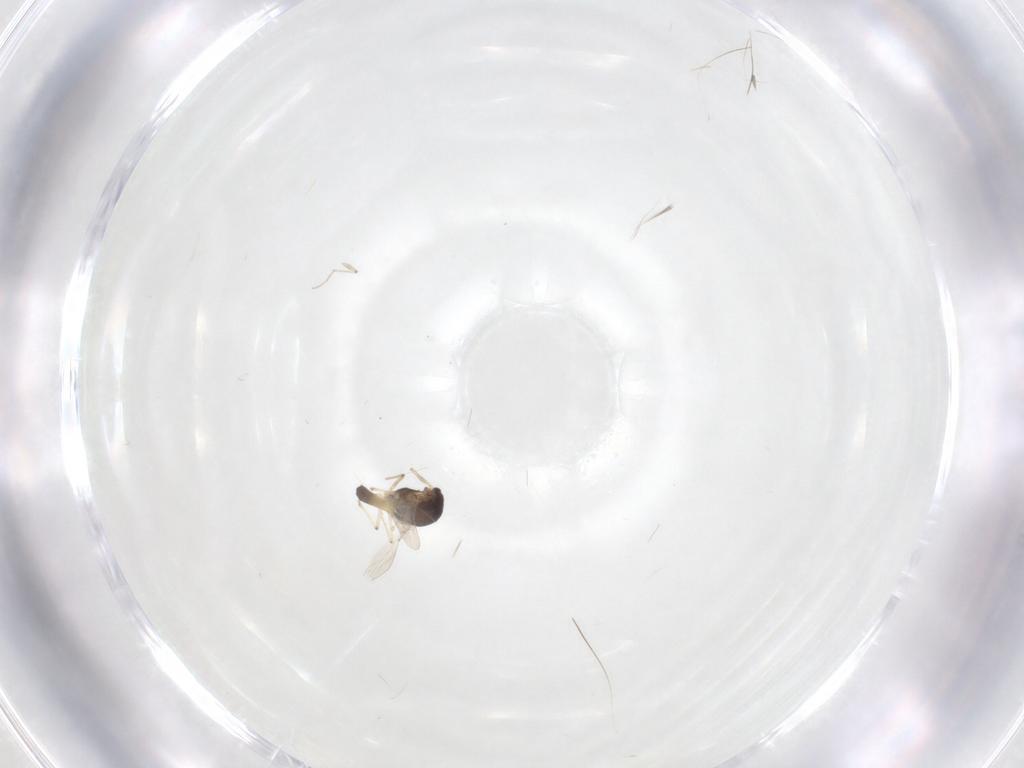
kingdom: Animalia
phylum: Arthropoda
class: Insecta
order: Diptera
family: Chironomidae
